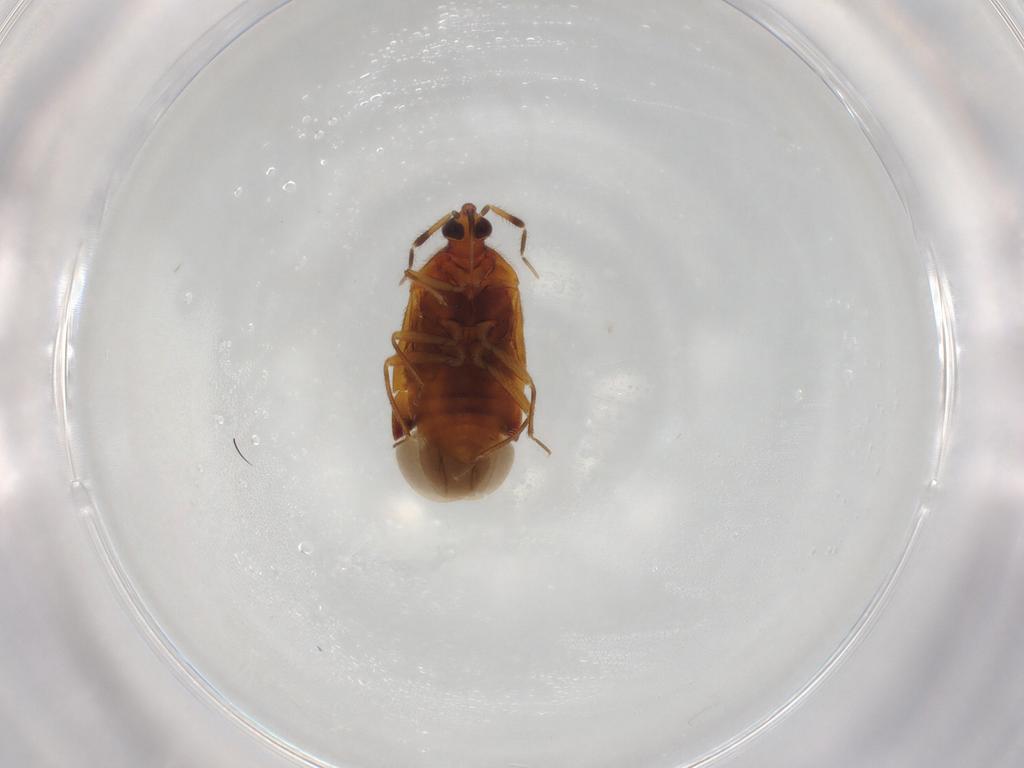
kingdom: Animalia
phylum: Arthropoda
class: Insecta
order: Hemiptera
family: Anthocoridae
